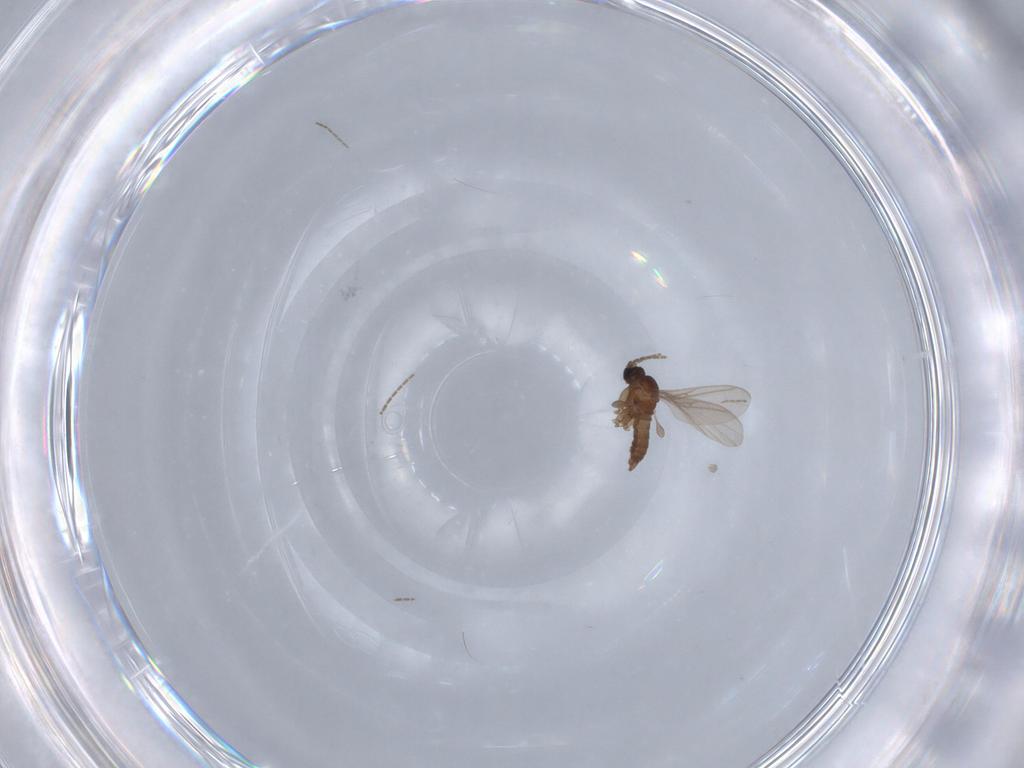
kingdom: Animalia
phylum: Arthropoda
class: Insecta
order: Diptera
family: Sciaridae
